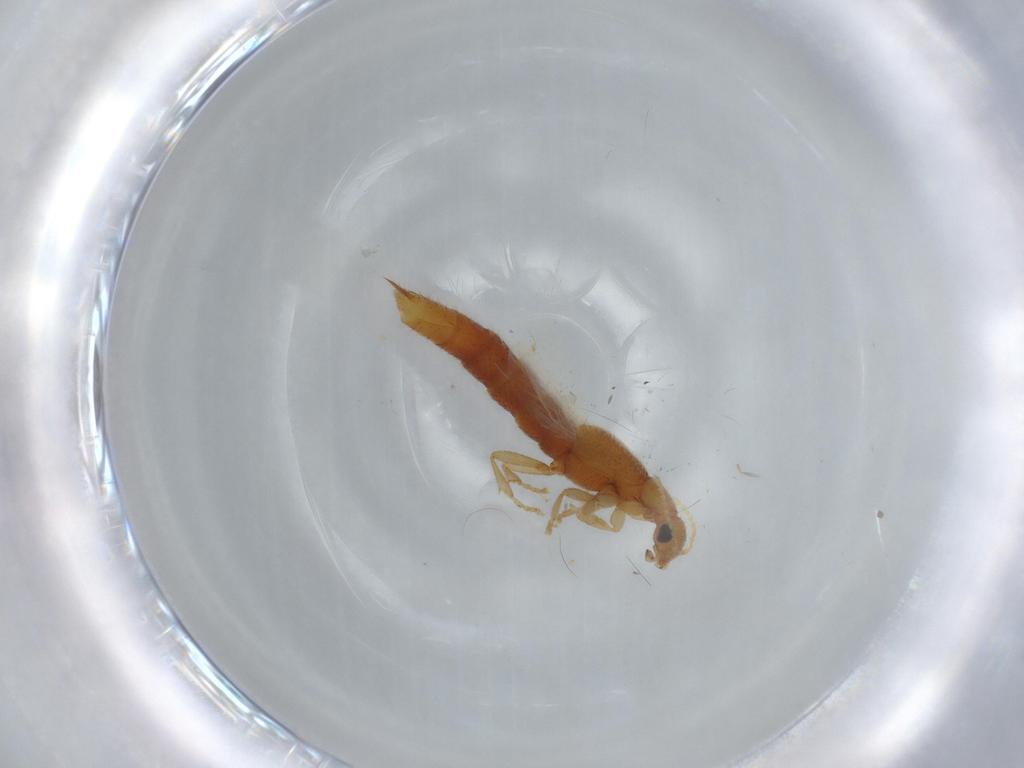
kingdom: Animalia
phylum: Arthropoda
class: Insecta
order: Coleoptera
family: Staphylinidae
